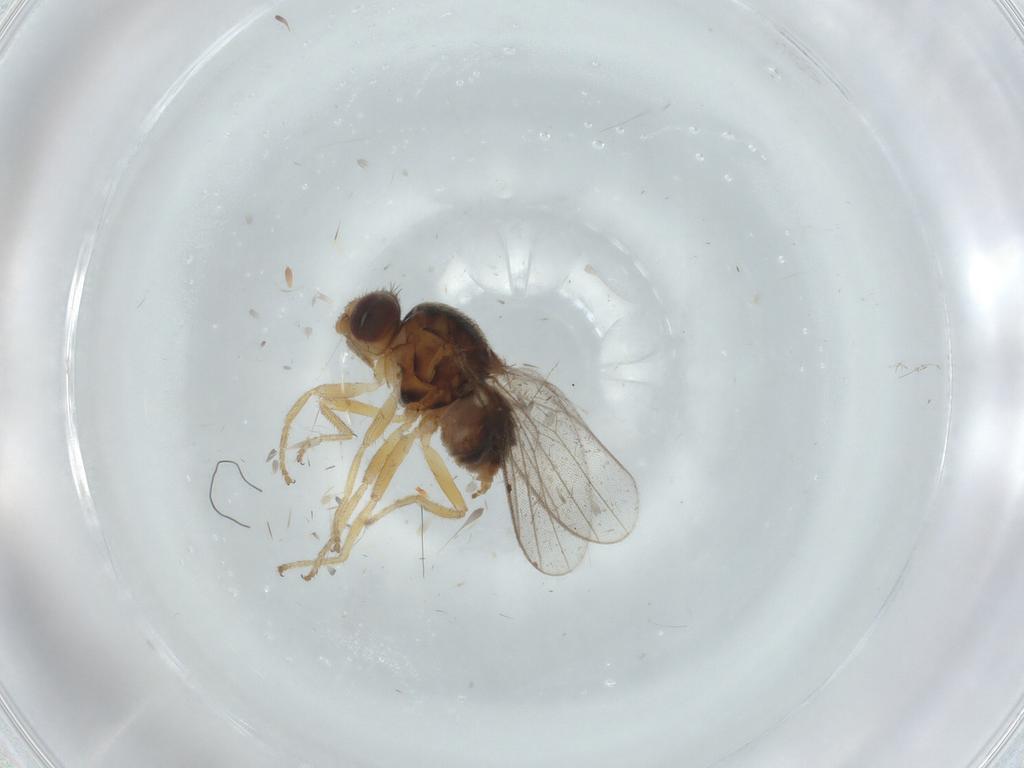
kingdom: Animalia
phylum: Arthropoda
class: Insecta
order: Diptera
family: Chloropidae
